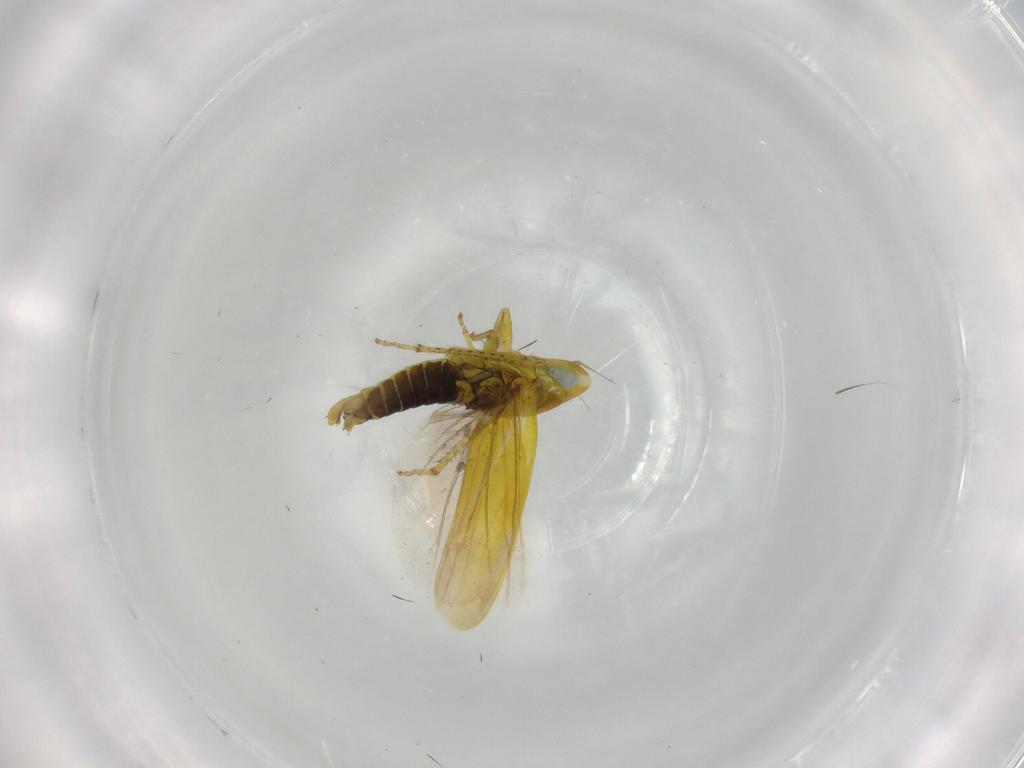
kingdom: Animalia
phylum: Arthropoda
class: Insecta
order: Hemiptera
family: Cicadellidae
